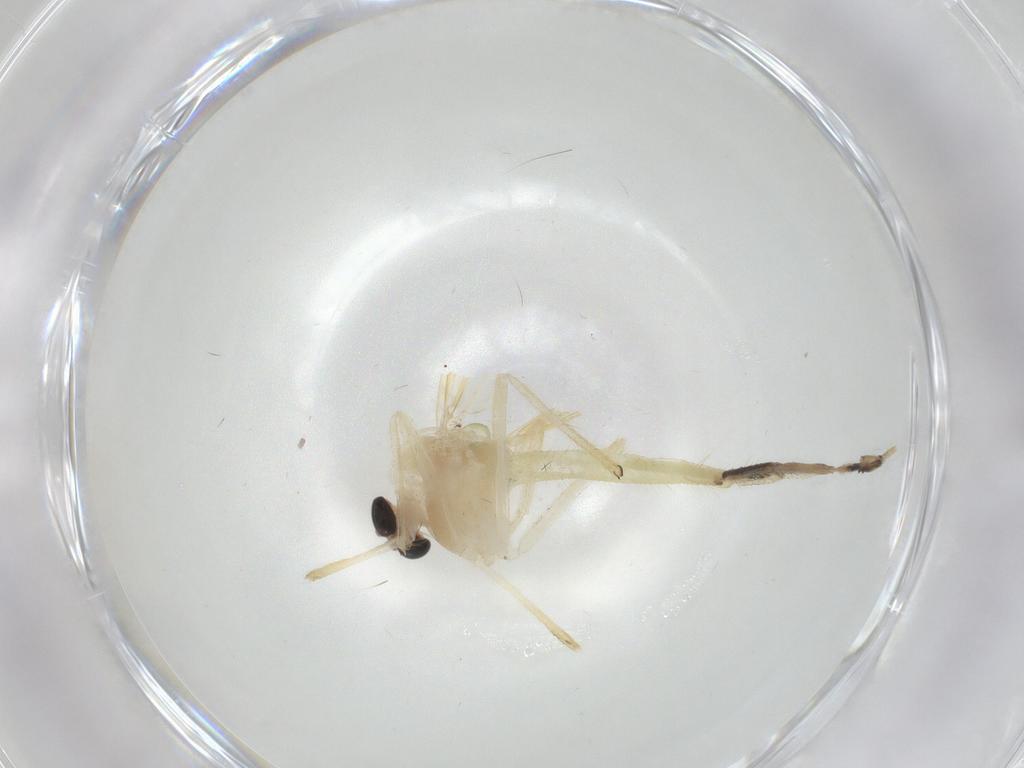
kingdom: Animalia
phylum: Arthropoda
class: Insecta
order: Diptera
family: Chironomidae
